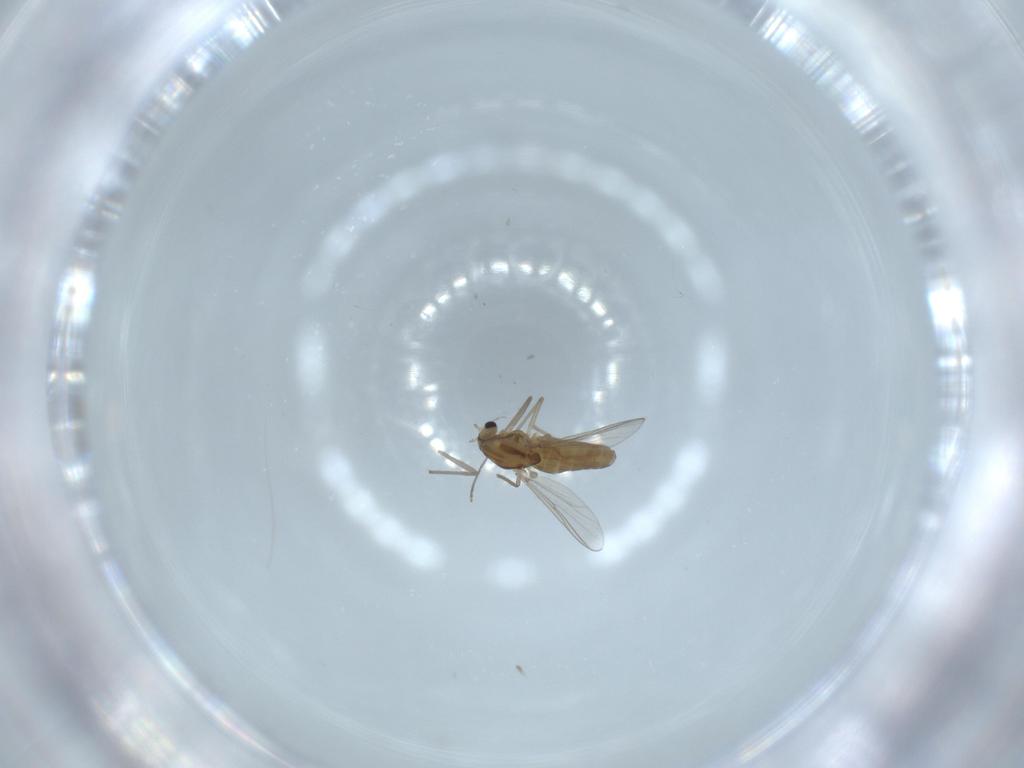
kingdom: Animalia
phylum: Arthropoda
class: Insecta
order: Diptera
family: Chironomidae
